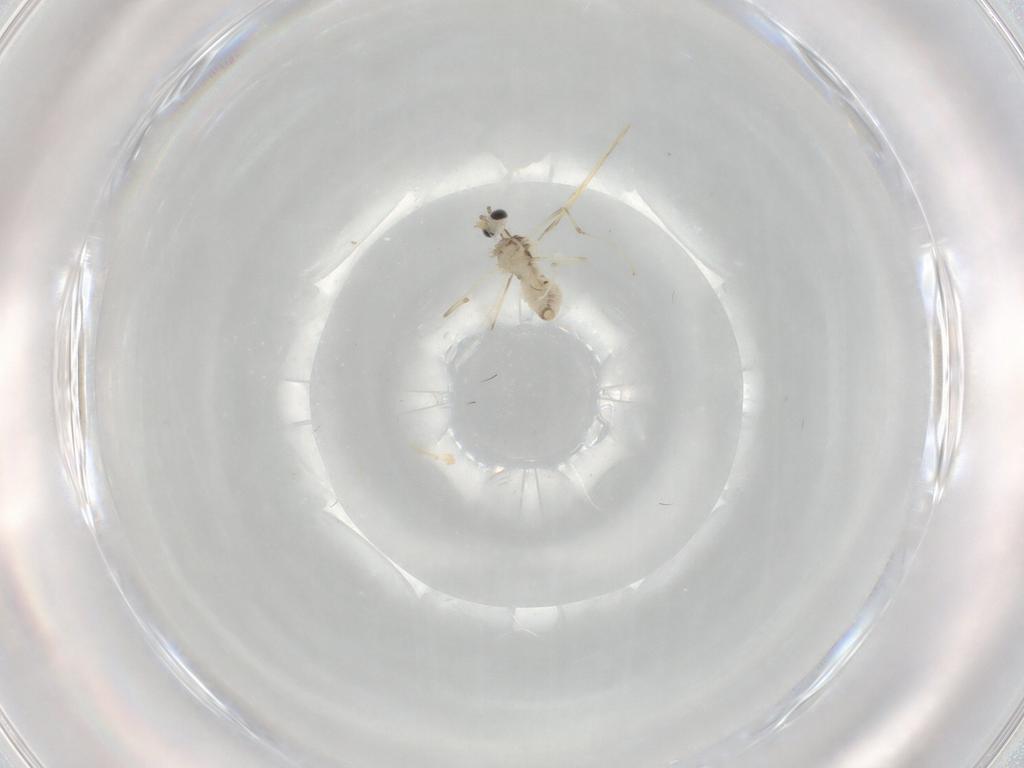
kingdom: Animalia
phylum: Arthropoda
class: Insecta
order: Diptera
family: Cecidomyiidae
